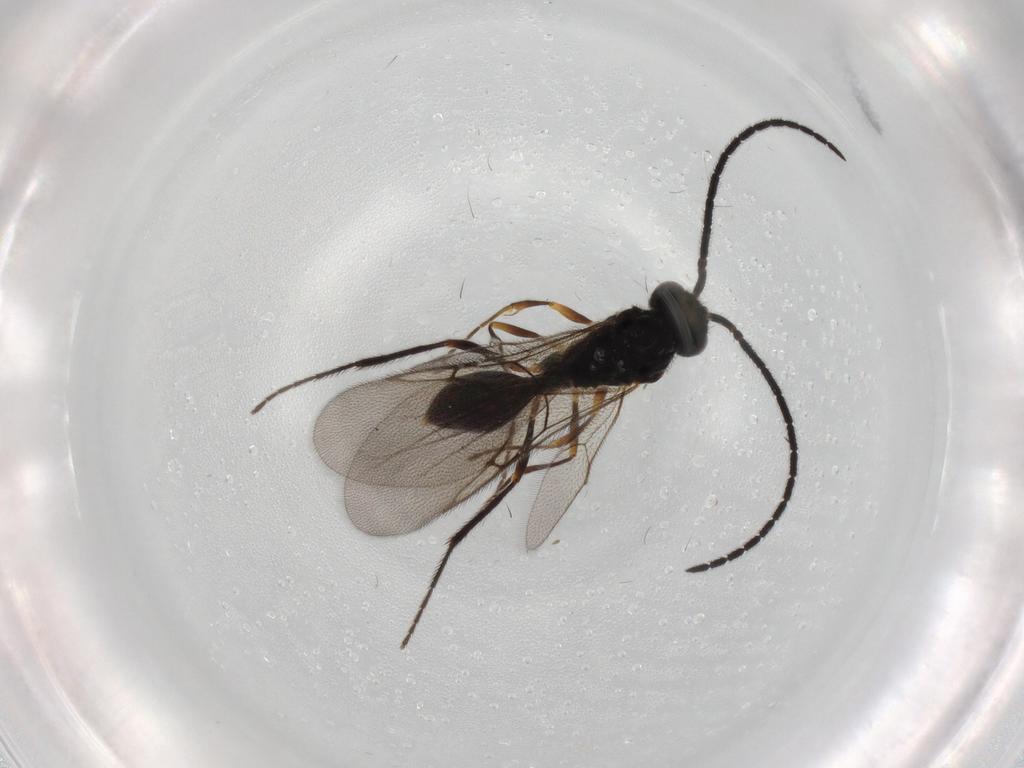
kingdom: Animalia
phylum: Arthropoda
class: Insecta
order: Hymenoptera
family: Diapriidae
